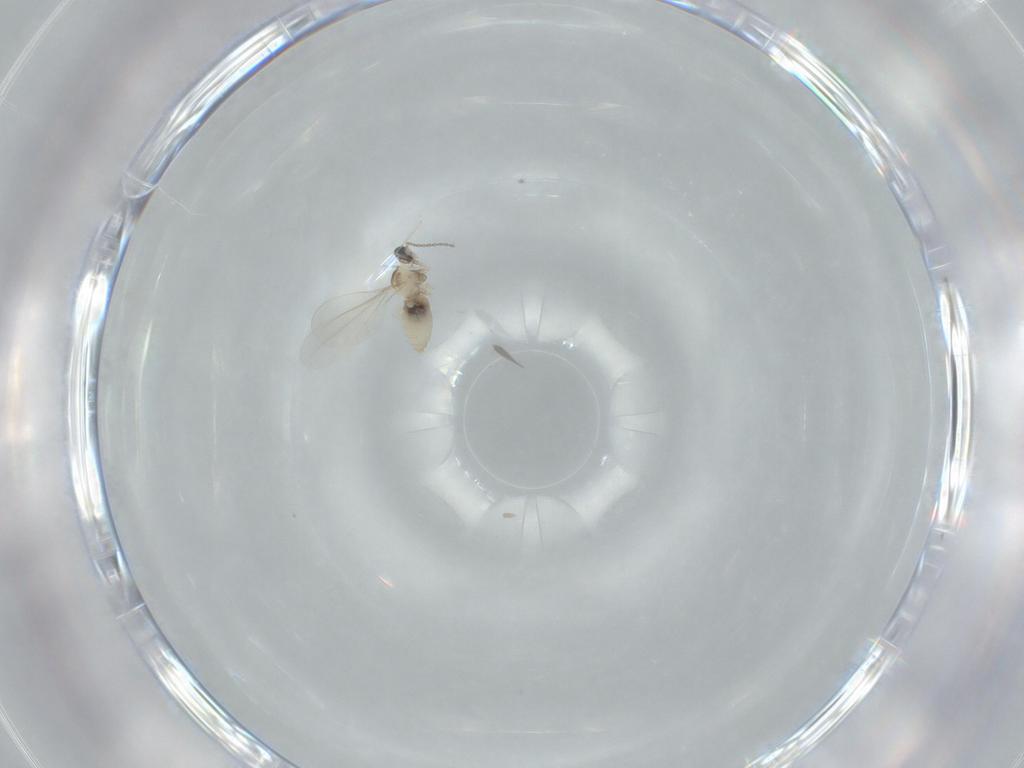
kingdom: Animalia
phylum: Arthropoda
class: Insecta
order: Diptera
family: Cecidomyiidae
